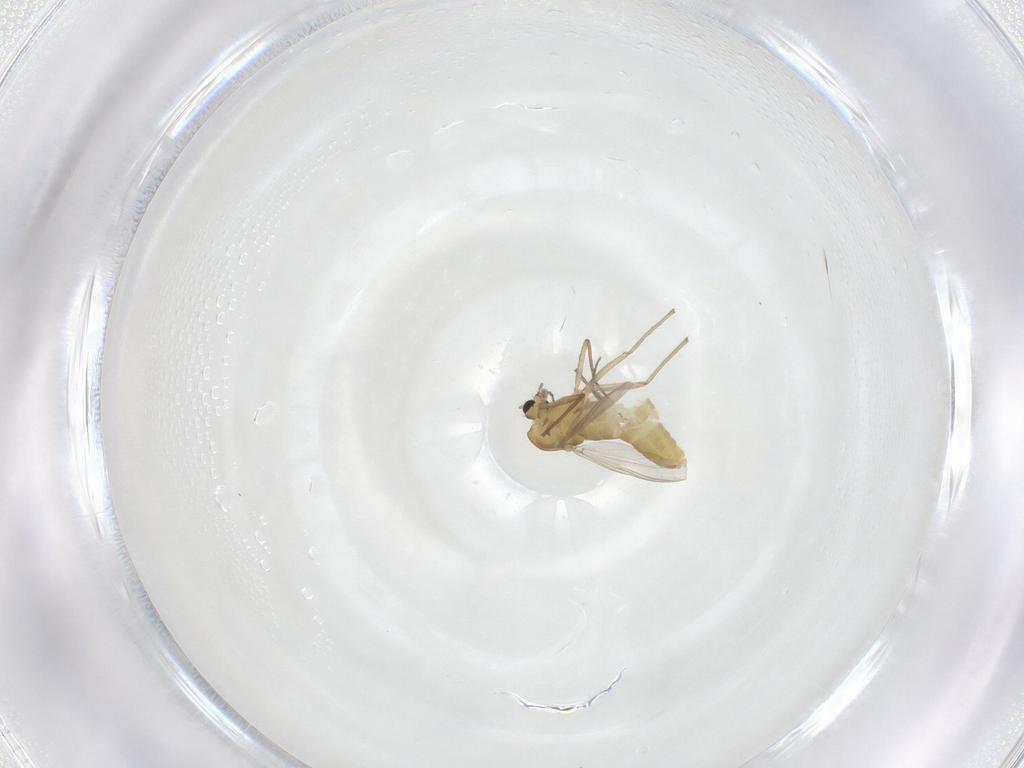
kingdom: Animalia
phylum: Arthropoda
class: Insecta
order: Diptera
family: Chironomidae
